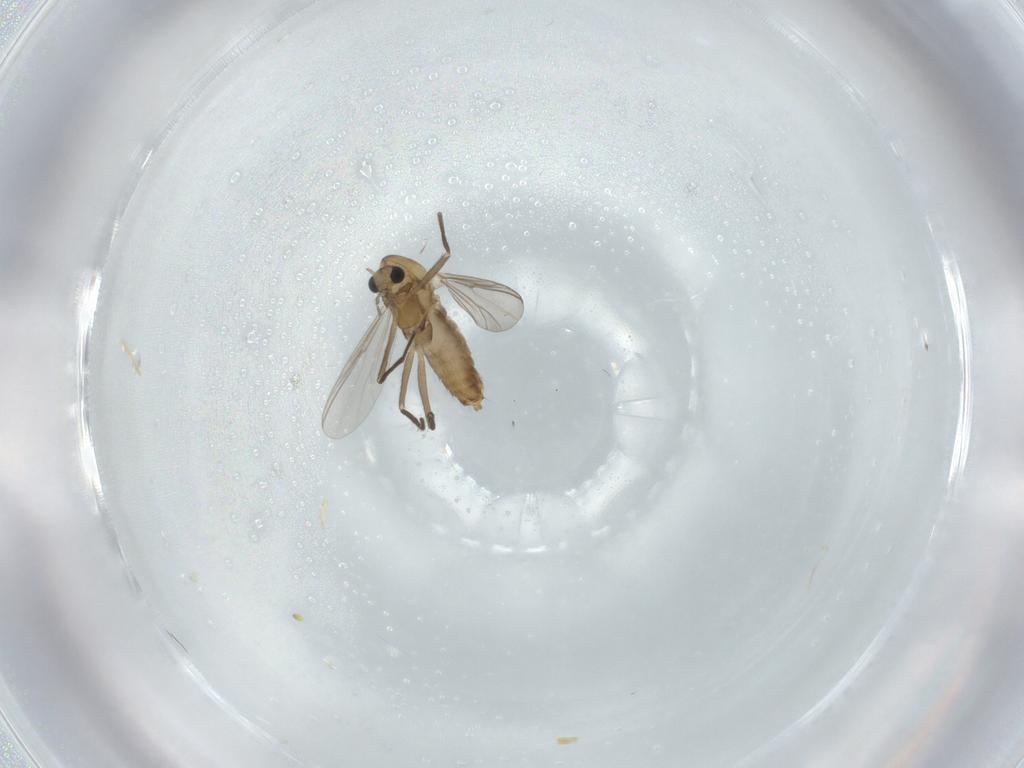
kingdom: Animalia
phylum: Arthropoda
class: Insecta
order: Diptera
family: Chironomidae
